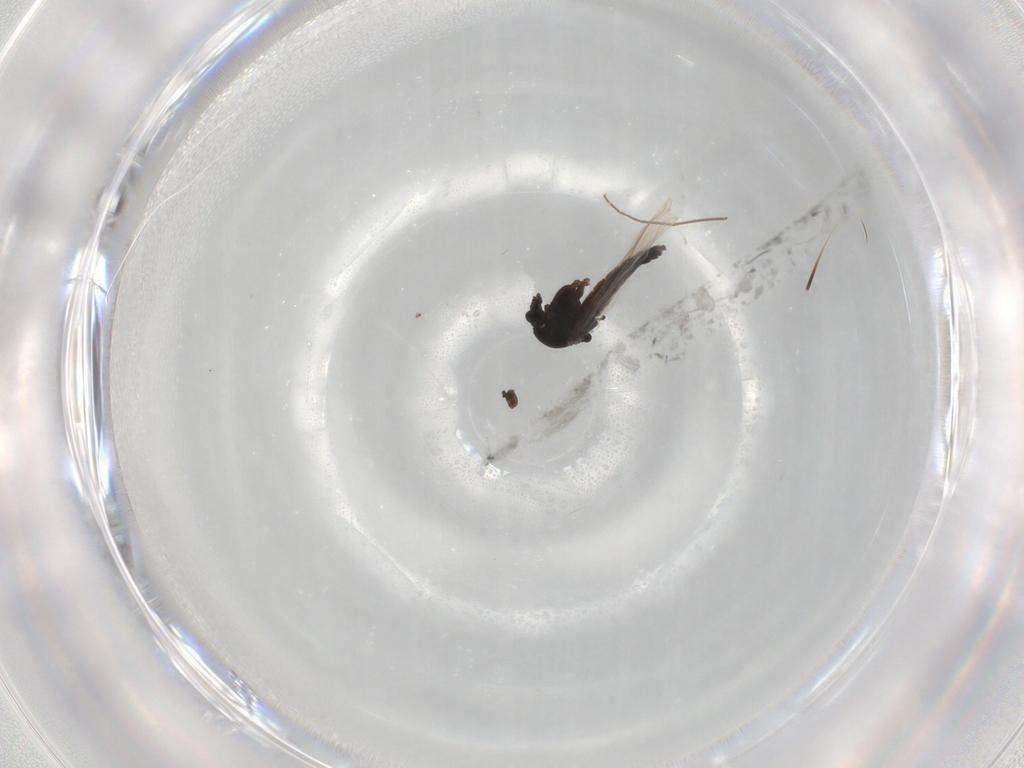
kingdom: Animalia
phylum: Arthropoda
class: Insecta
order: Diptera
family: Chironomidae
